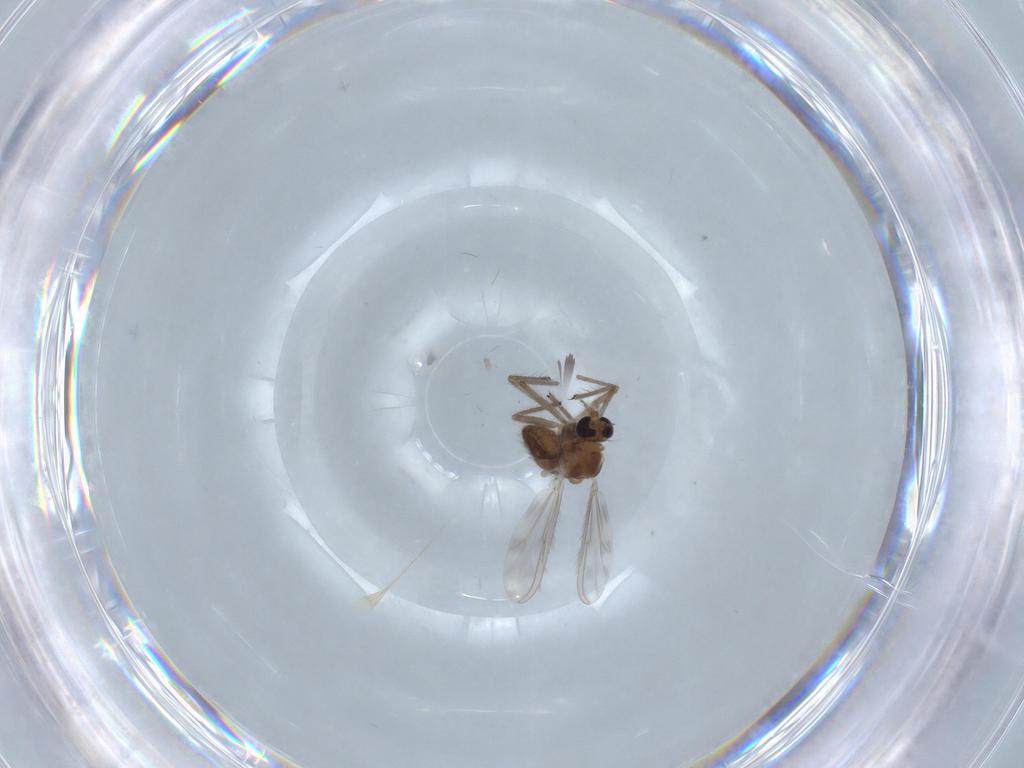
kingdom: Animalia
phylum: Arthropoda
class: Insecta
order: Diptera
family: Chironomidae
